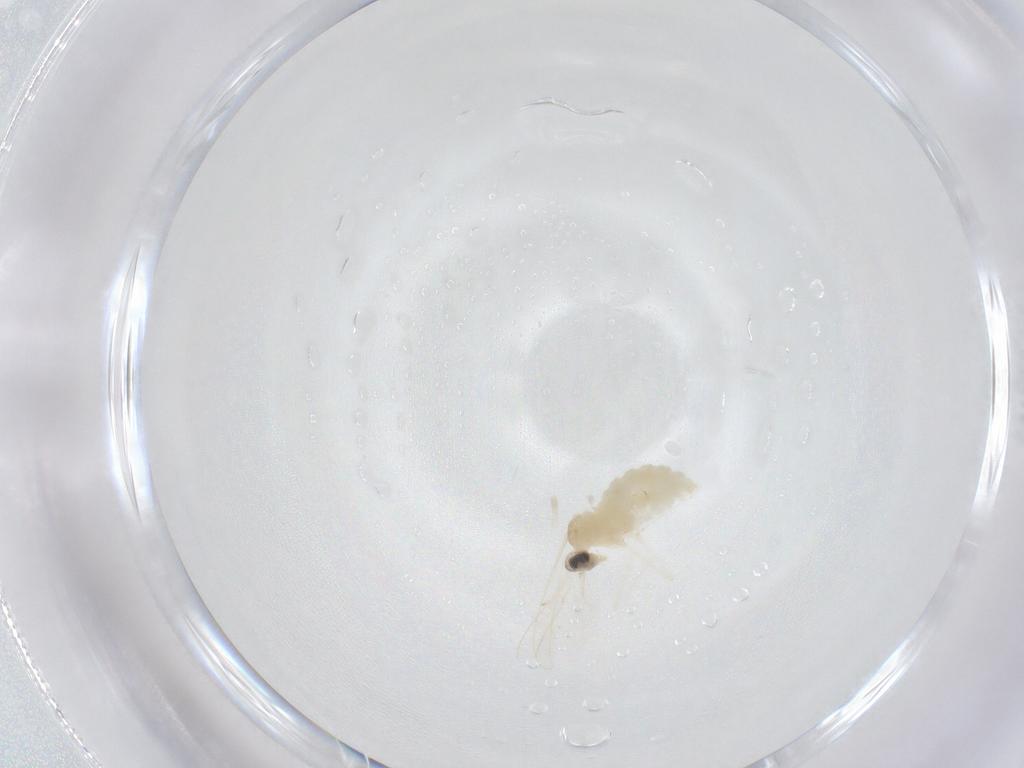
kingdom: Animalia
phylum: Arthropoda
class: Insecta
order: Diptera
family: Cecidomyiidae
